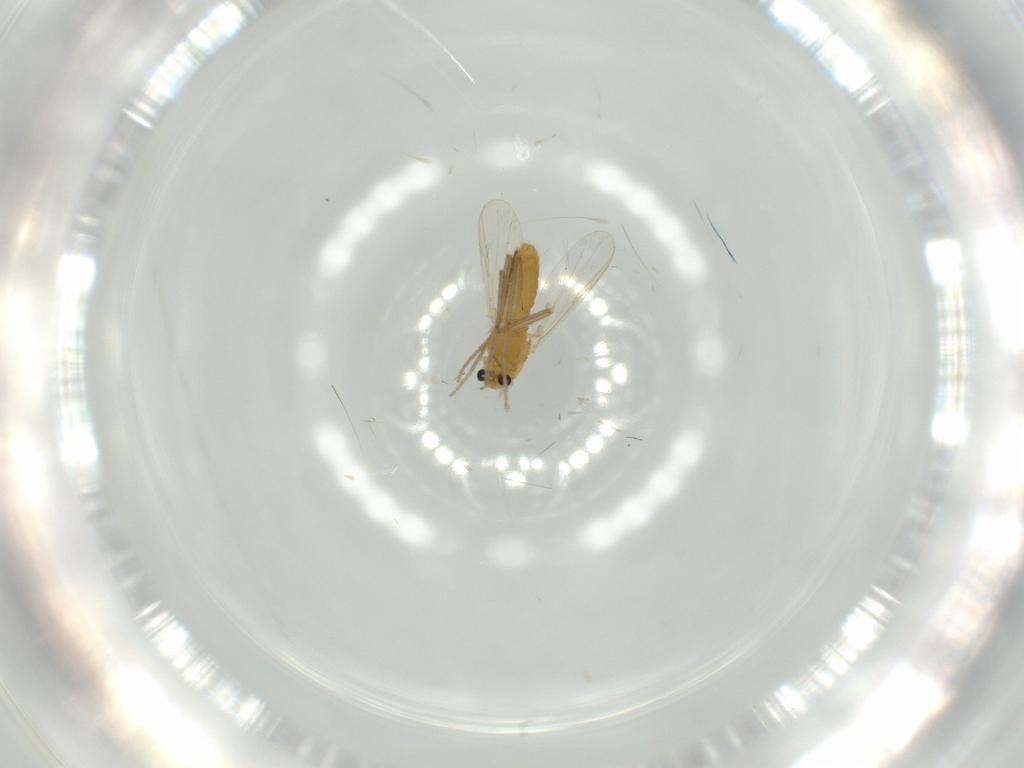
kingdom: Animalia
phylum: Arthropoda
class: Insecta
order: Diptera
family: Chironomidae
